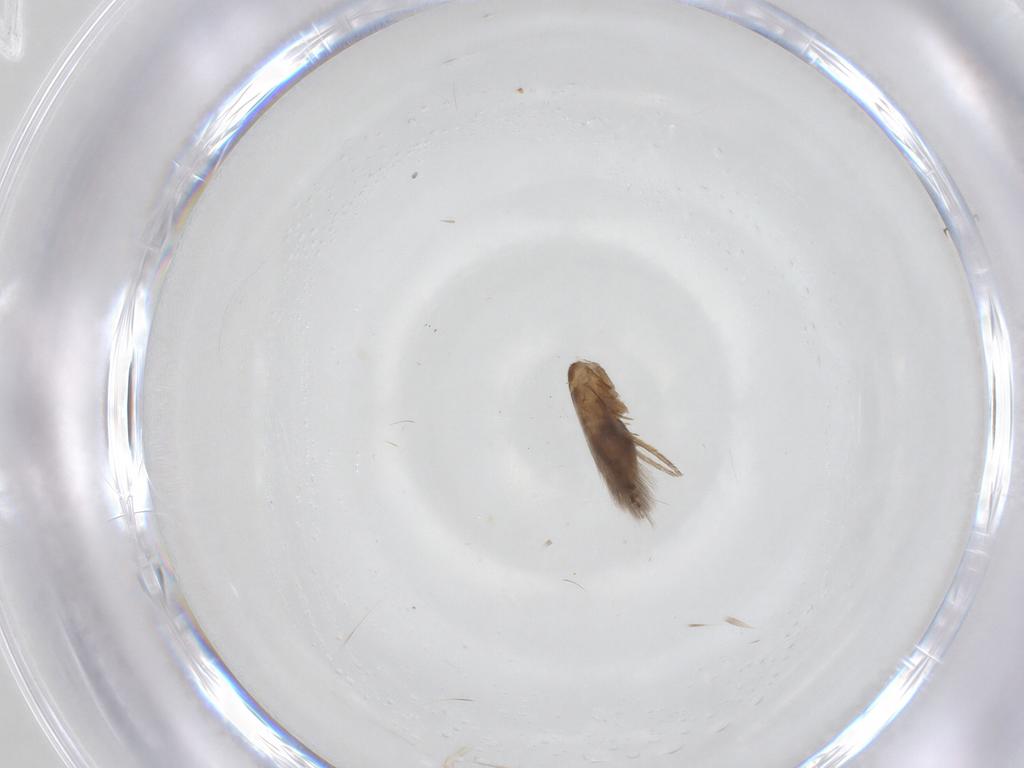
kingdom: Animalia
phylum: Arthropoda
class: Insecta
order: Lepidoptera
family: Heliozelidae
